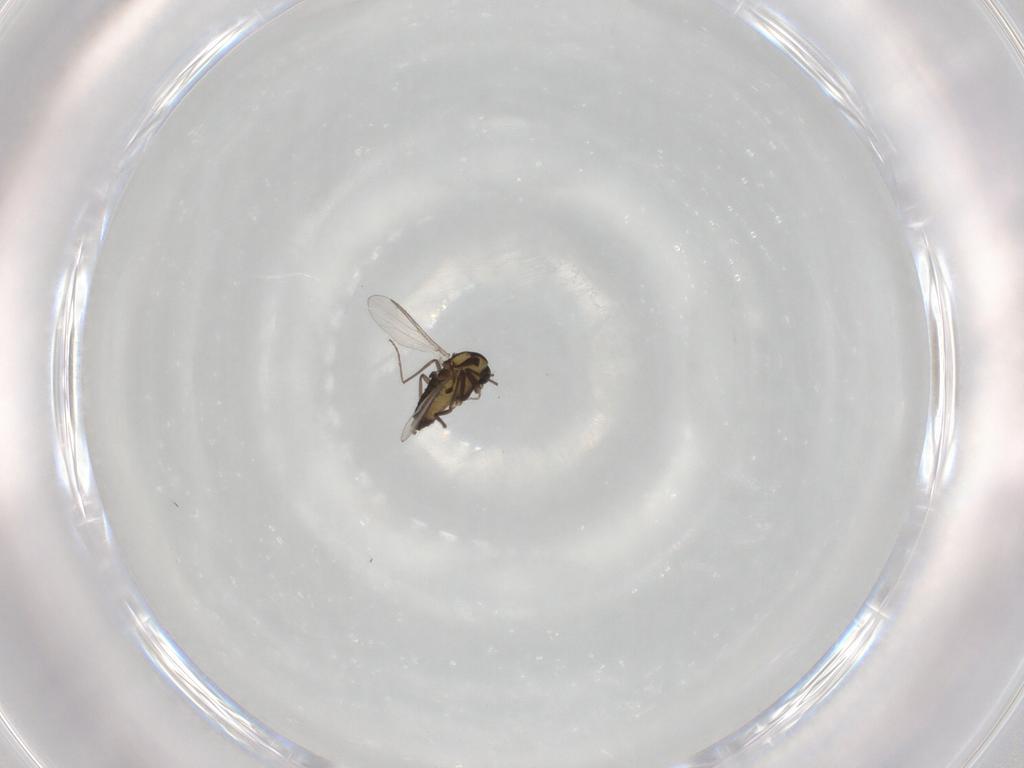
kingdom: Animalia
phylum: Arthropoda
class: Insecta
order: Diptera
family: Chironomidae
